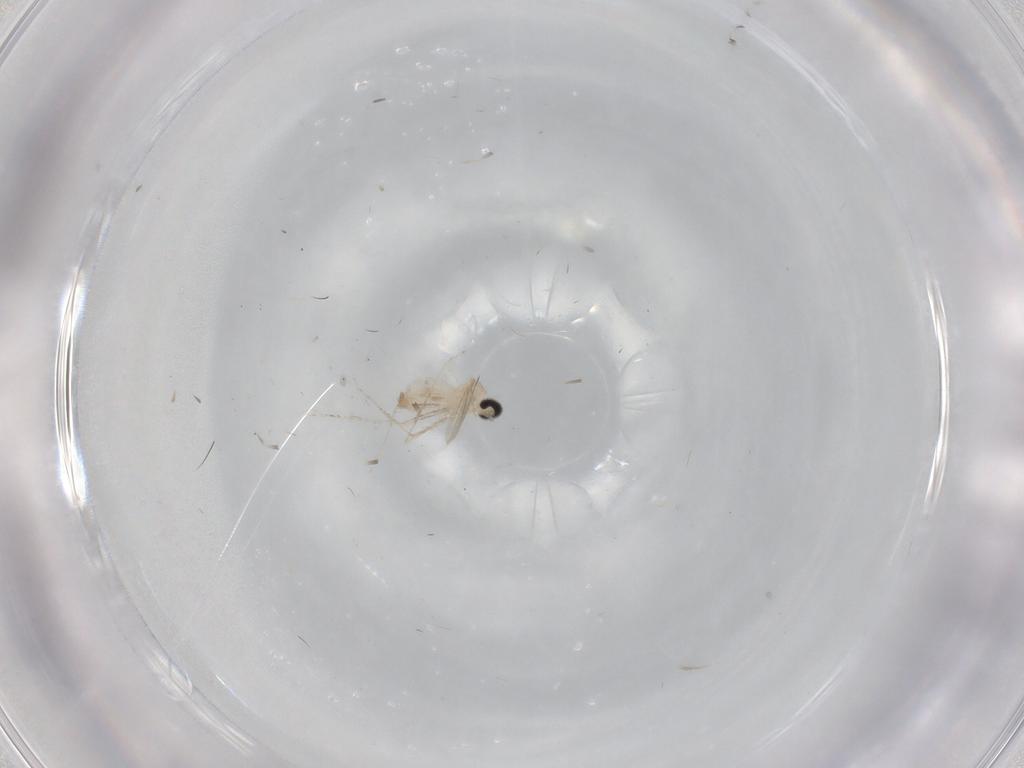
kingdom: Animalia
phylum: Arthropoda
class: Insecta
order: Diptera
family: Cecidomyiidae
